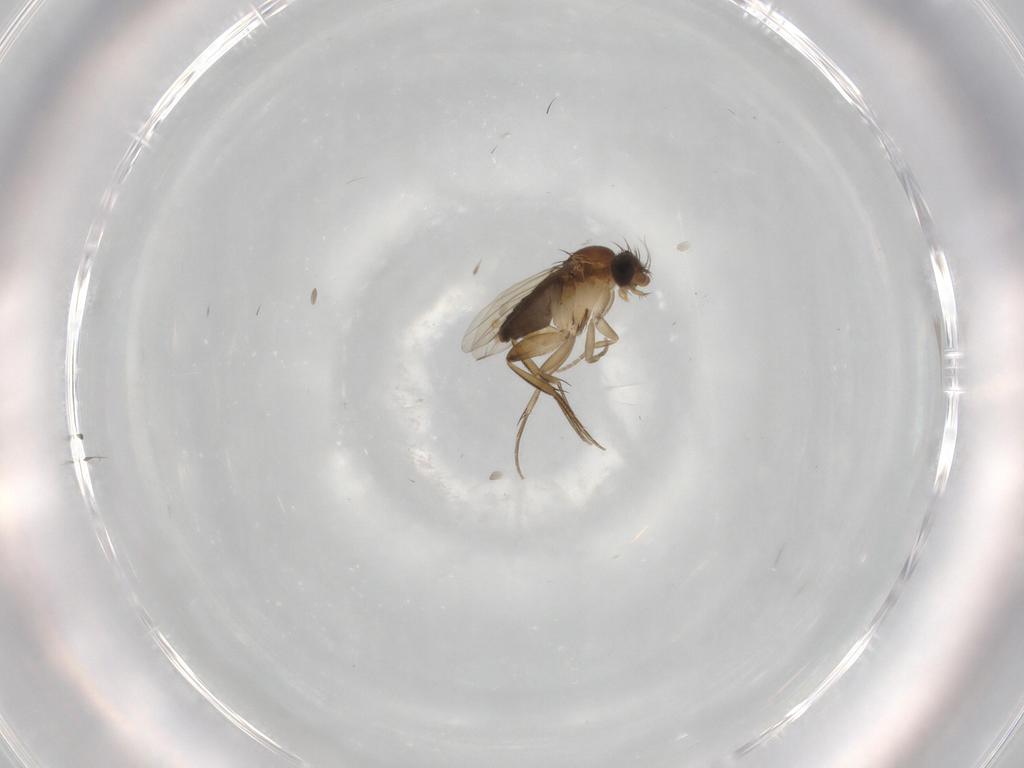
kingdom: Animalia
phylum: Arthropoda
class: Insecta
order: Diptera
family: Phoridae
